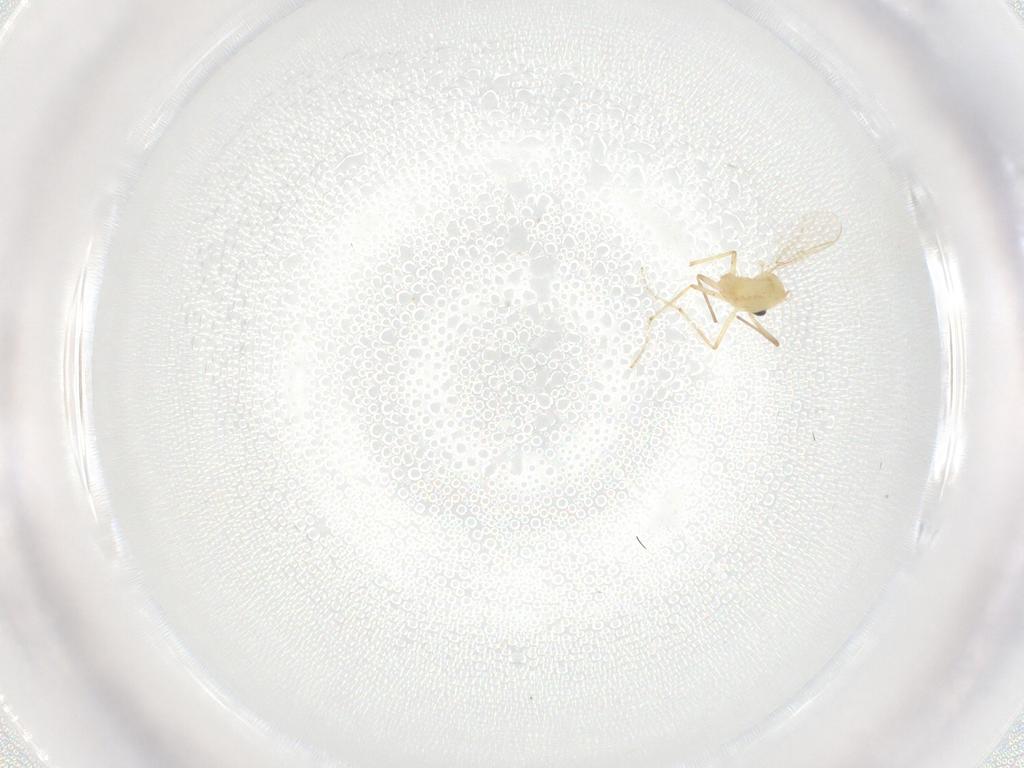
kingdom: Animalia
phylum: Arthropoda
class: Insecta
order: Diptera
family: Chironomidae
